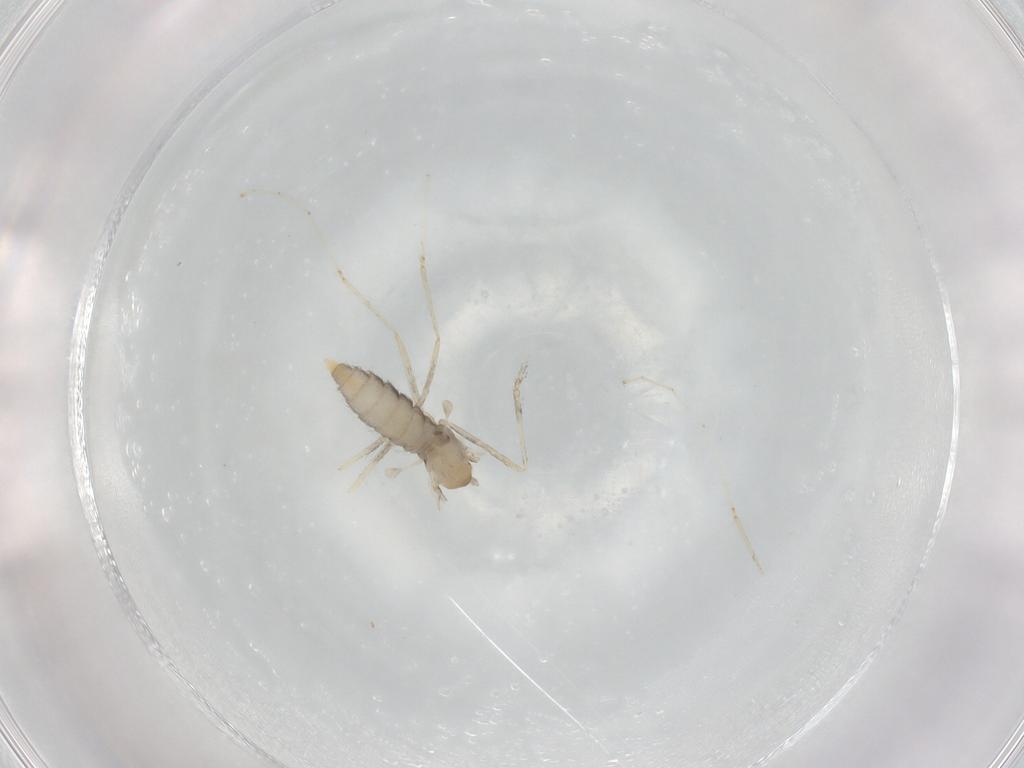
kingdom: Animalia
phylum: Arthropoda
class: Insecta
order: Diptera
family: Cecidomyiidae
